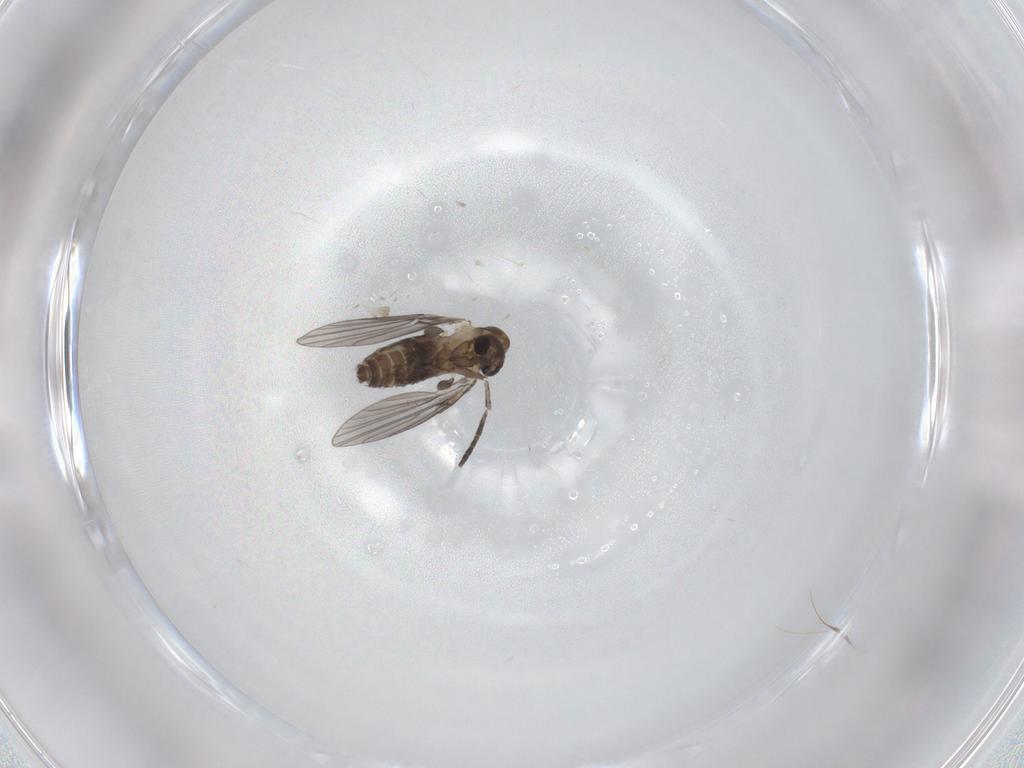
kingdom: Animalia
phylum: Arthropoda
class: Insecta
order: Diptera
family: Psychodidae
